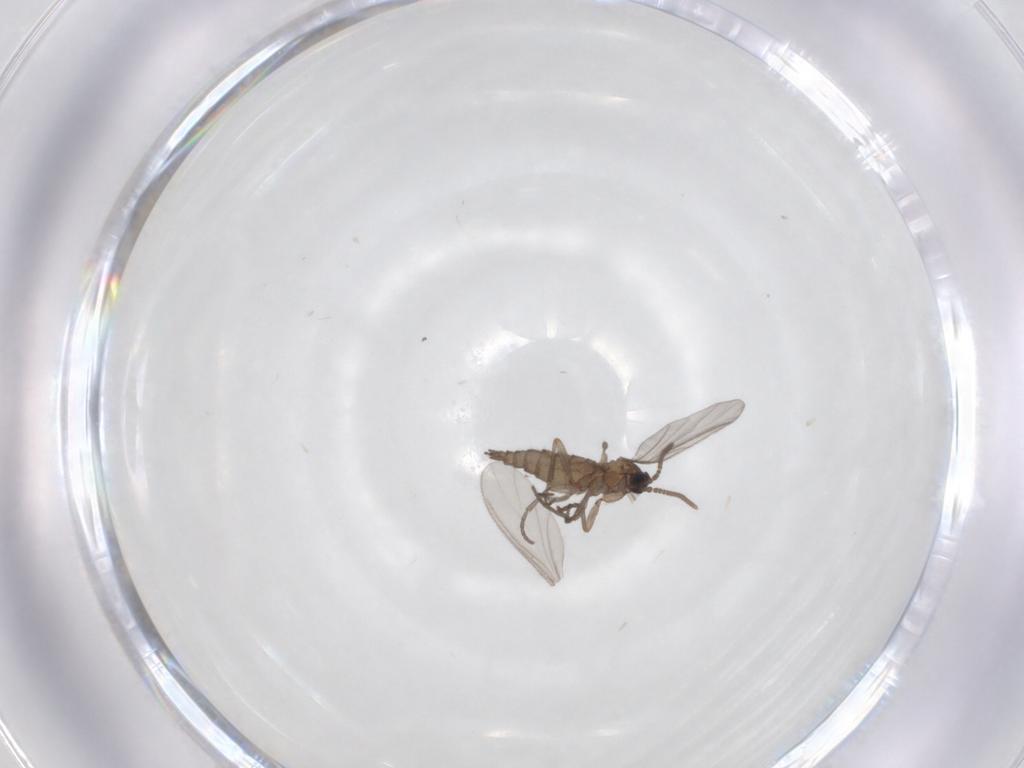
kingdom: Animalia
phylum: Arthropoda
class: Insecta
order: Diptera
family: Sciaridae
